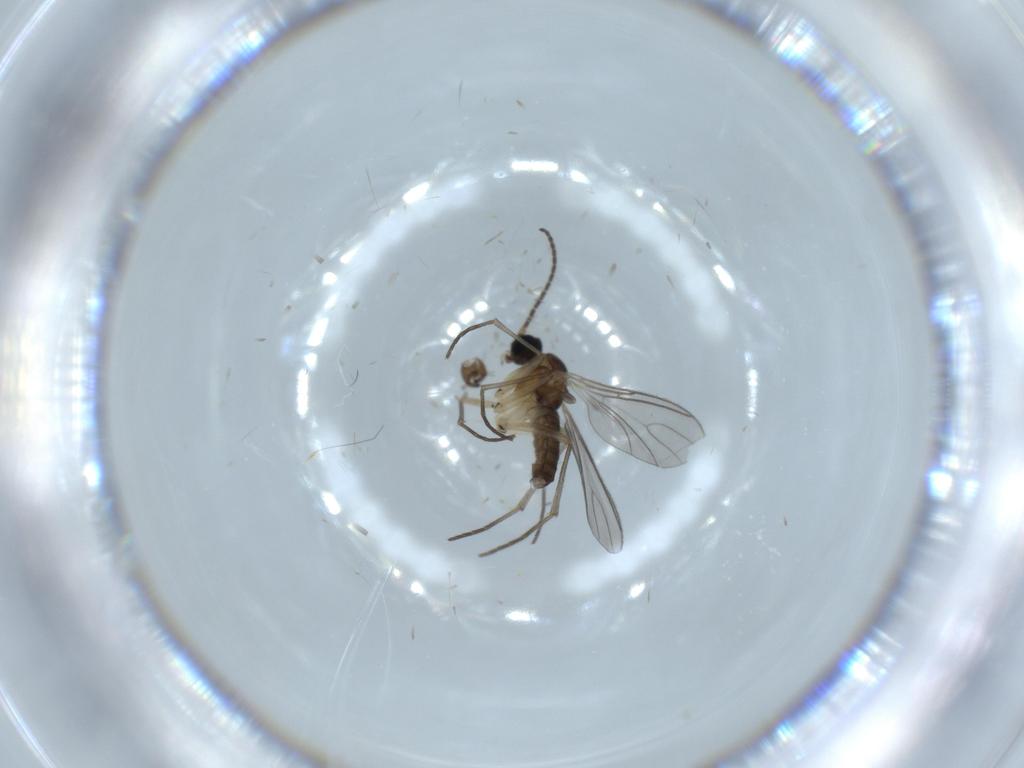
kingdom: Animalia
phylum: Arthropoda
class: Insecta
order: Diptera
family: Sciaridae
